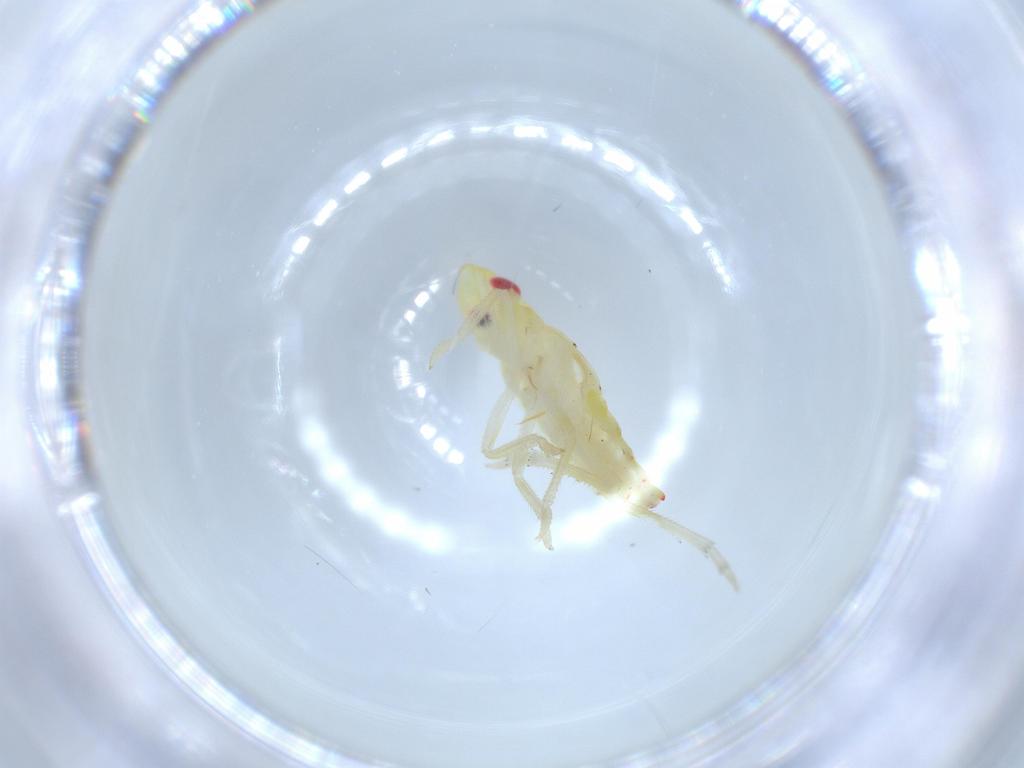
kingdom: Animalia
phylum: Arthropoda
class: Insecta
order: Hemiptera
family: Tropiduchidae
